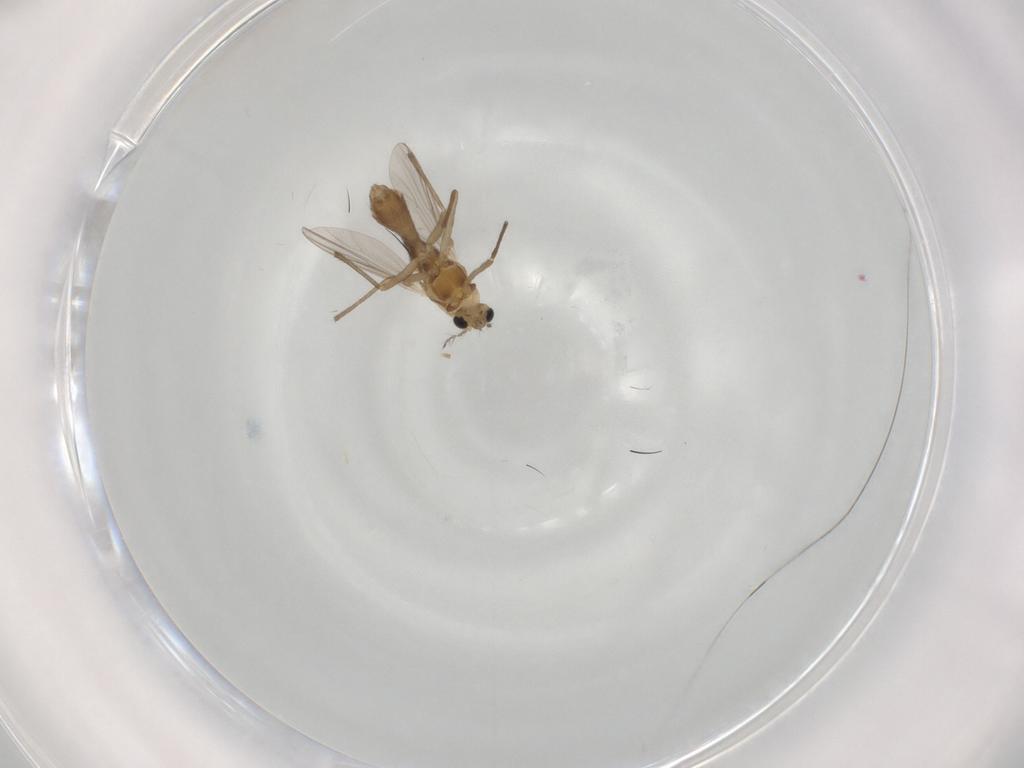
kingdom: Animalia
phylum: Arthropoda
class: Insecta
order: Diptera
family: Chironomidae
